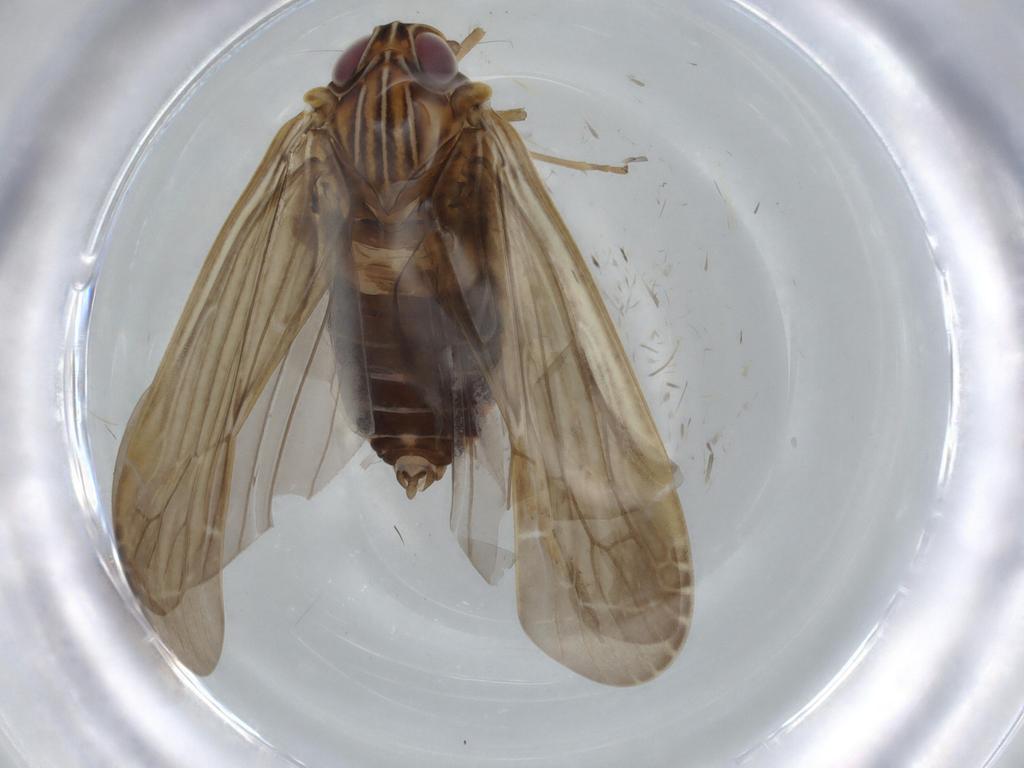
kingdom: Animalia
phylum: Arthropoda
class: Insecta
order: Hemiptera
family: Achilidae
